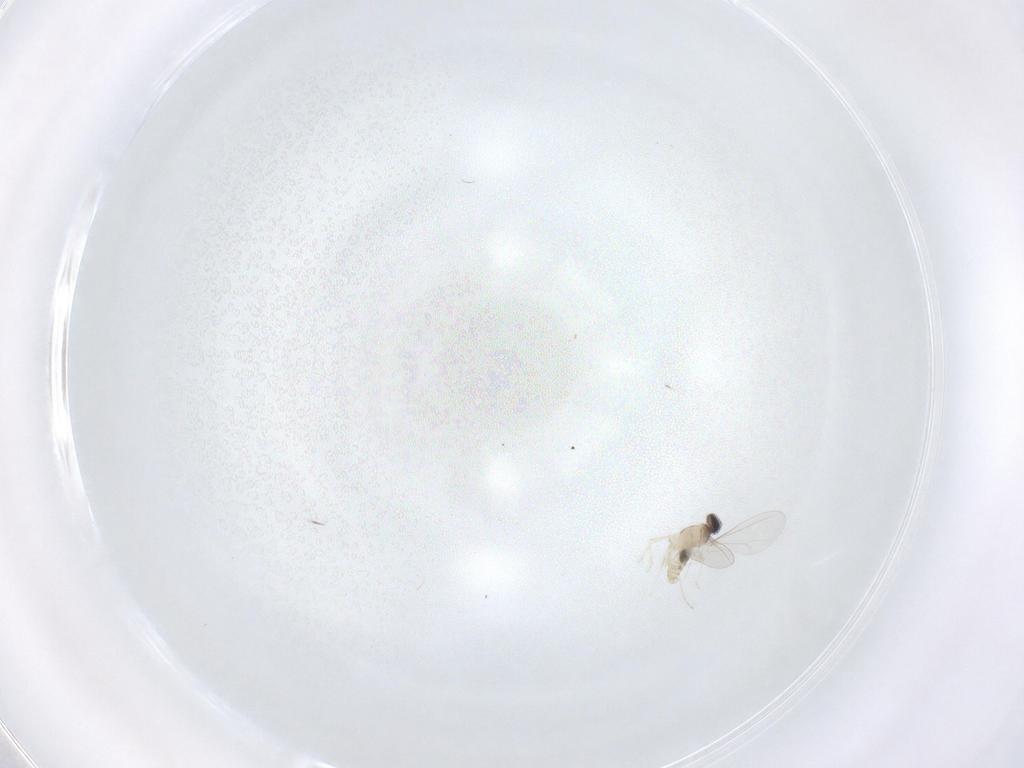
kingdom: Animalia
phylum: Arthropoda
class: Insecta
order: Diptera
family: Cecidomyiidae
